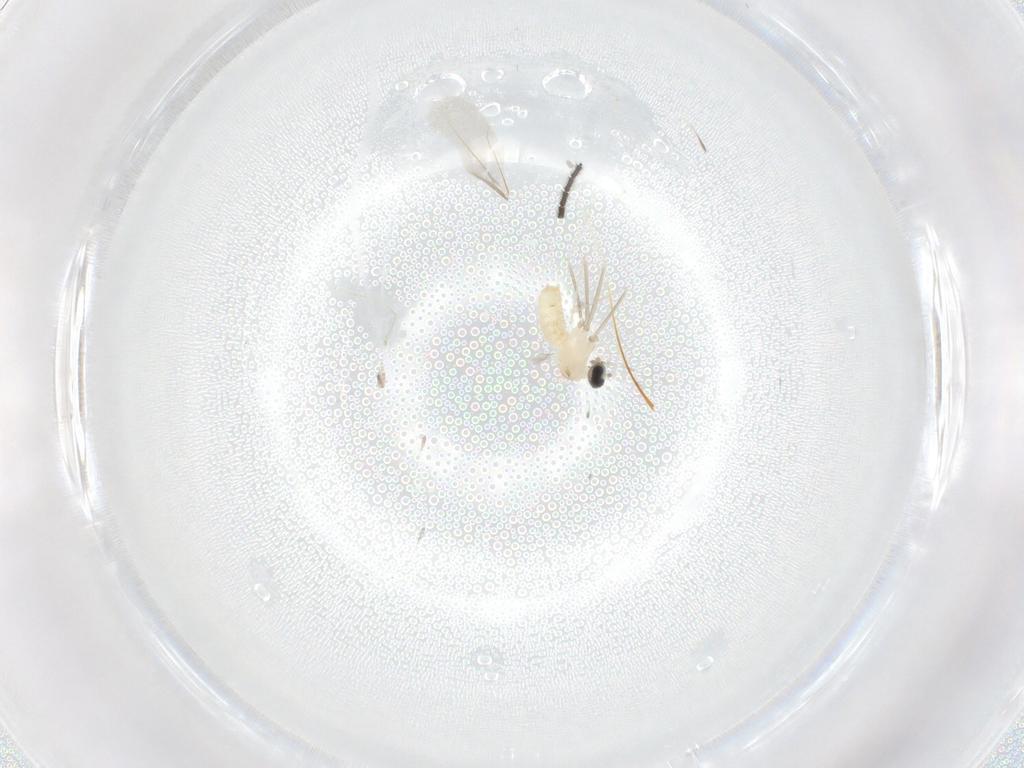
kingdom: Animalia
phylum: Arthropoda
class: Insecta
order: Diptera
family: Cecidomyiidae
